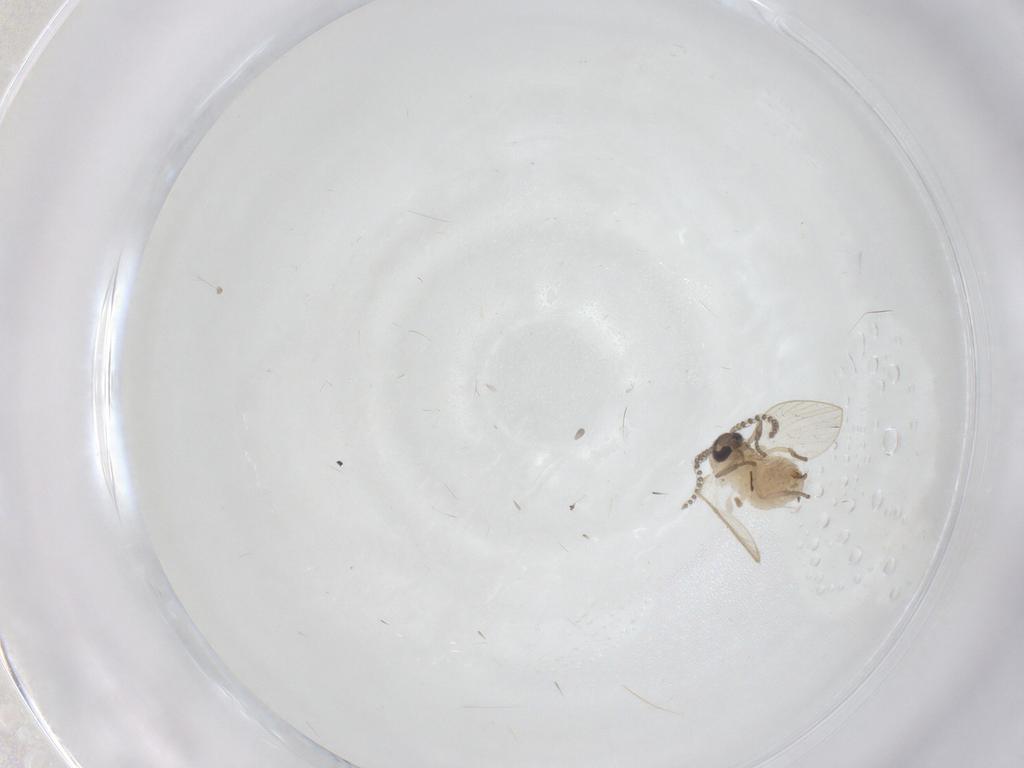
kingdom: Animalia
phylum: Arthropoda
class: Insecta
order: Diptera
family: Psychodidae
